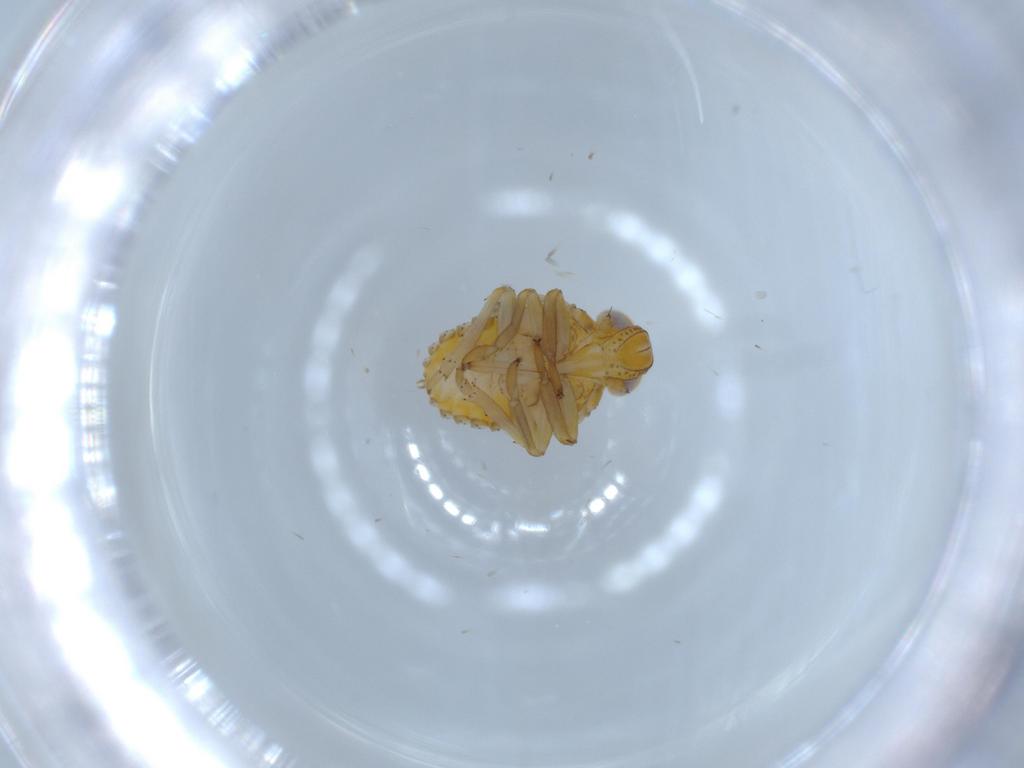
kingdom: Animalia
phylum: Arthropoda
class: Insecta
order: Hemiptera
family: Issidae
